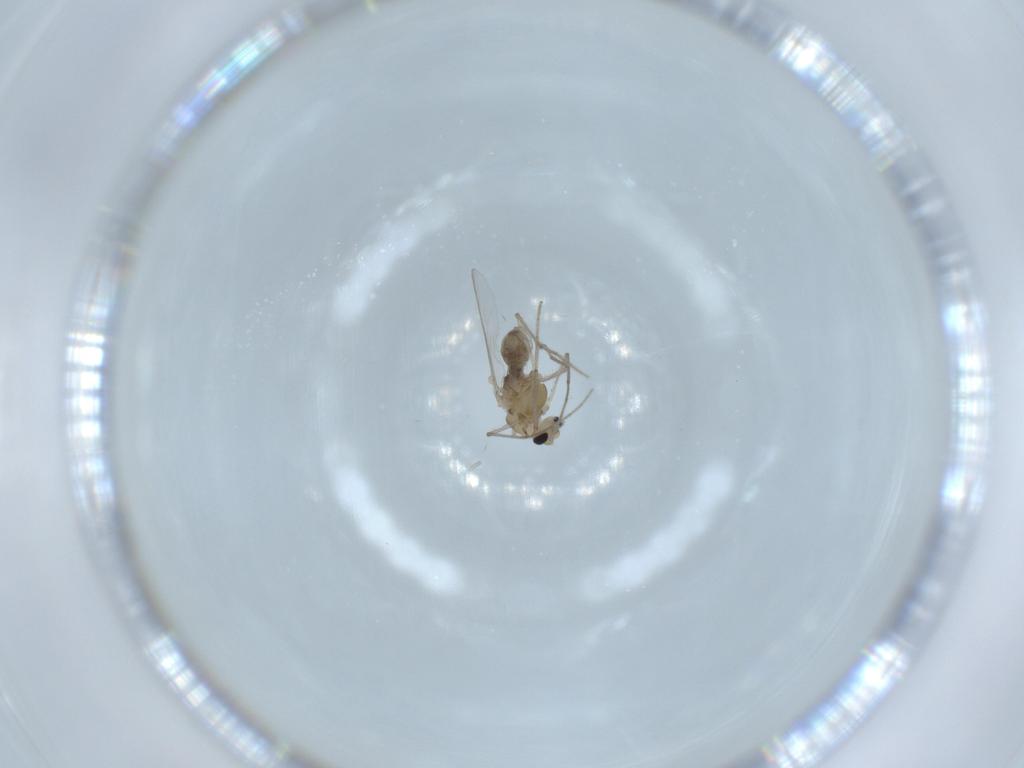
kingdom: Animalia
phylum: Arthropoda
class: Insecta
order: Diptera
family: Chironomidae
